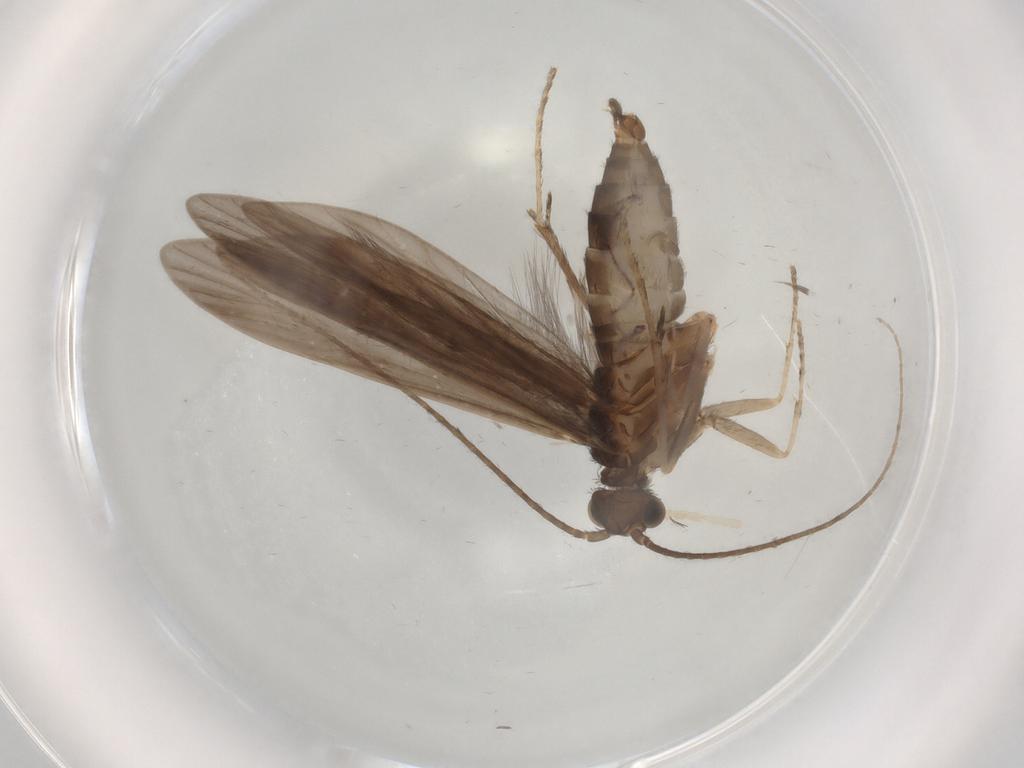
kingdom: Animalia
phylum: Arthropoda
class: Insecta
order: Trichoptera
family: Xiphocentronidae
